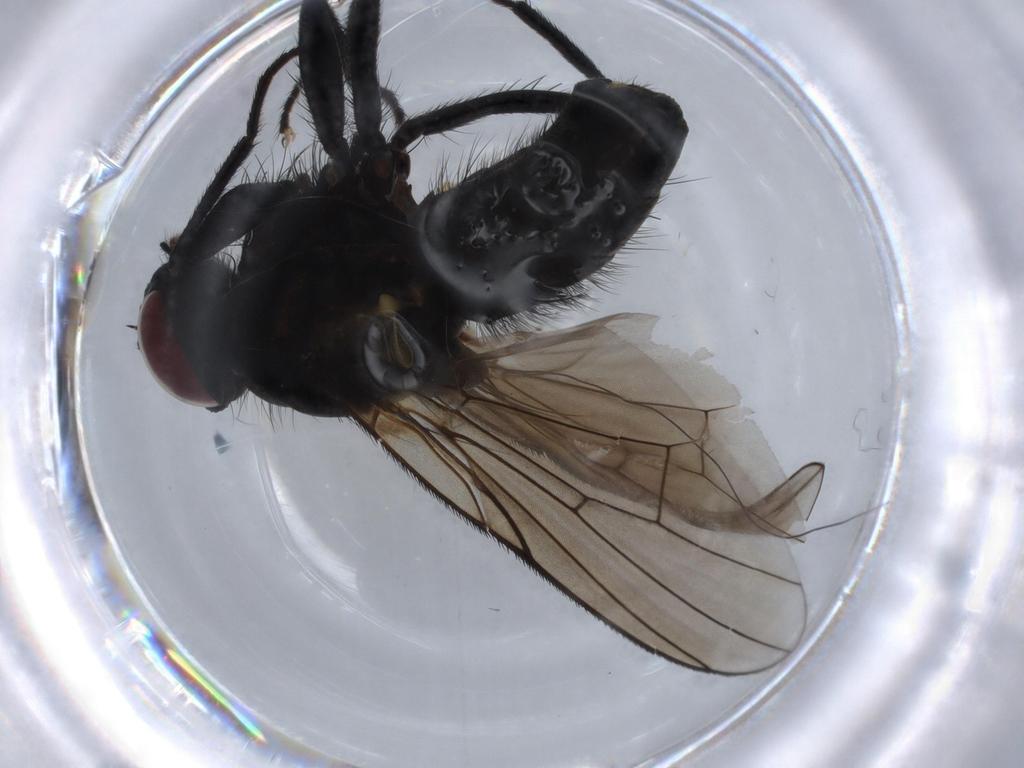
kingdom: Animalia
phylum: Arthropoda
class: Insecta
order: Diptera
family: Muscidae
